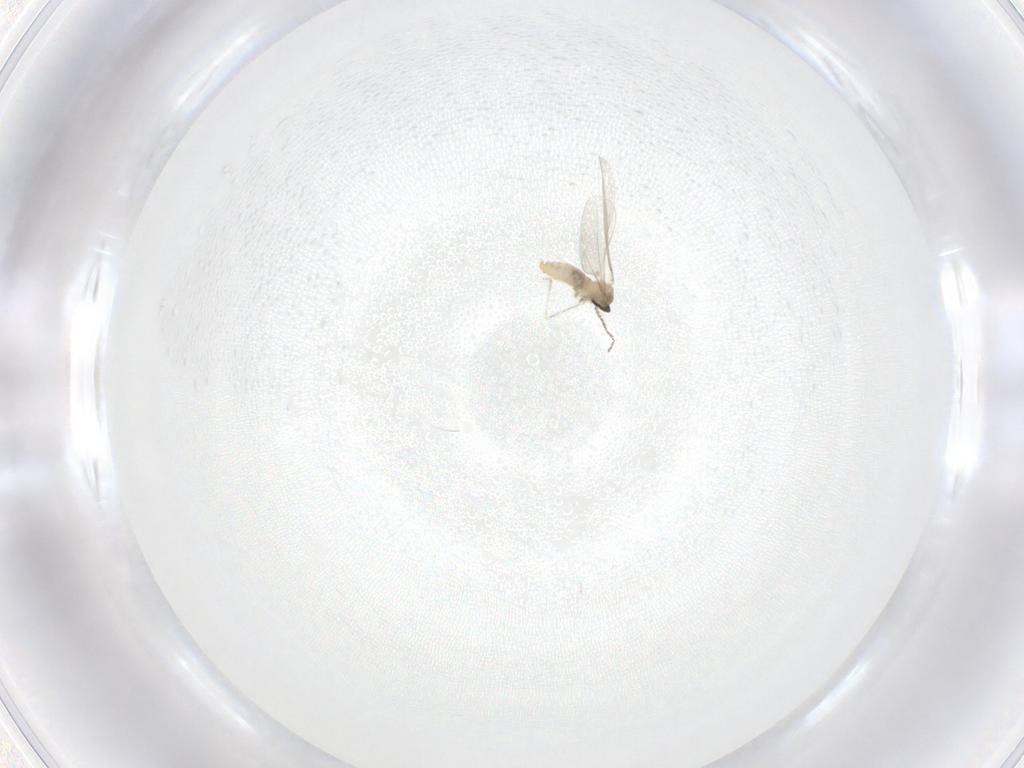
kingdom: Animalia
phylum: Arthropoda
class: Insecta
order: Diptera
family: Cecidomyiidae
